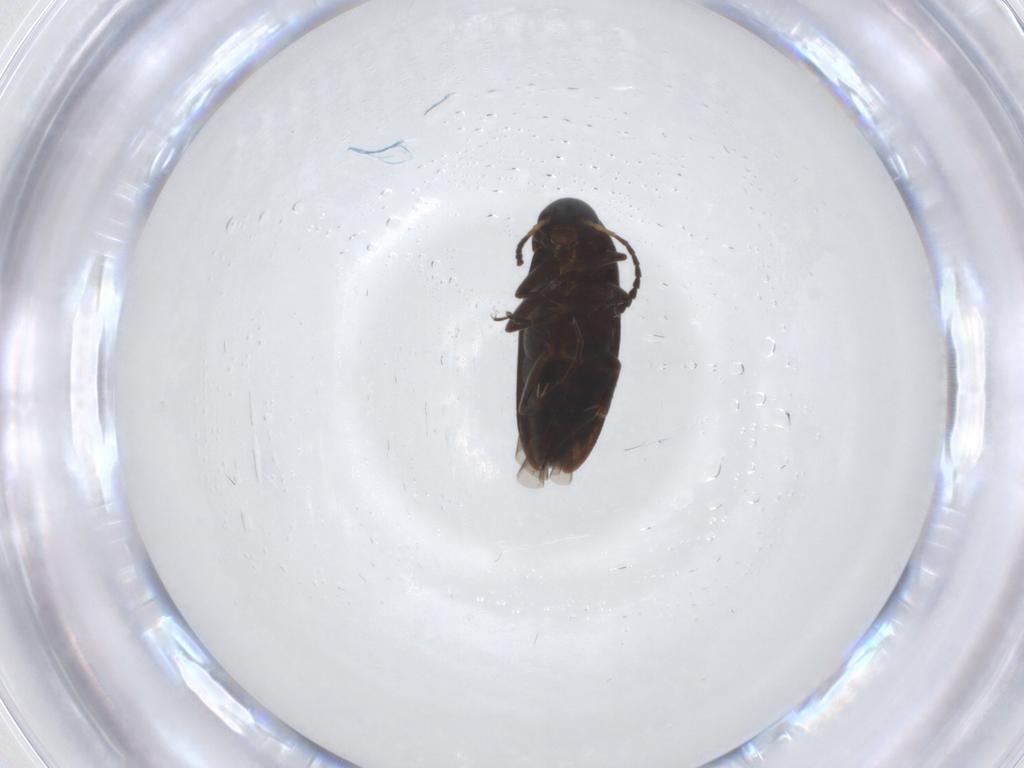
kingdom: Animalia
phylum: Arthropoda
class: Insecta
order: Coleoptera
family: Scraptiidae
